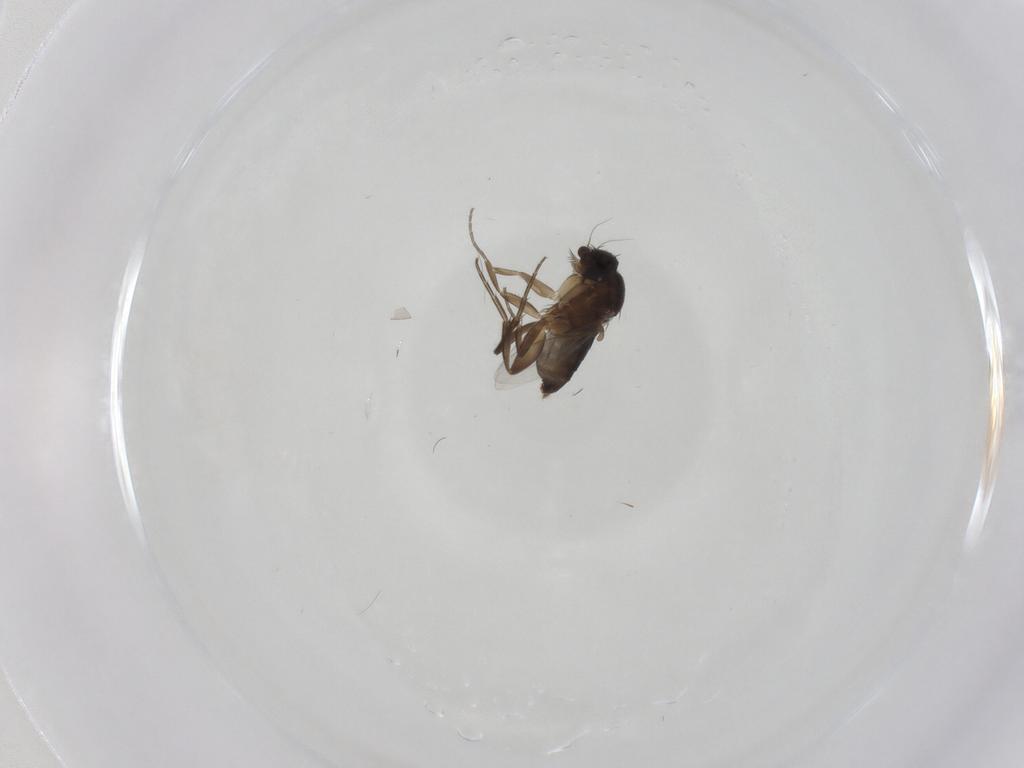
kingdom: Animalia
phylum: Arthropoda
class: Insecta
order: Diptera
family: Phoridae
